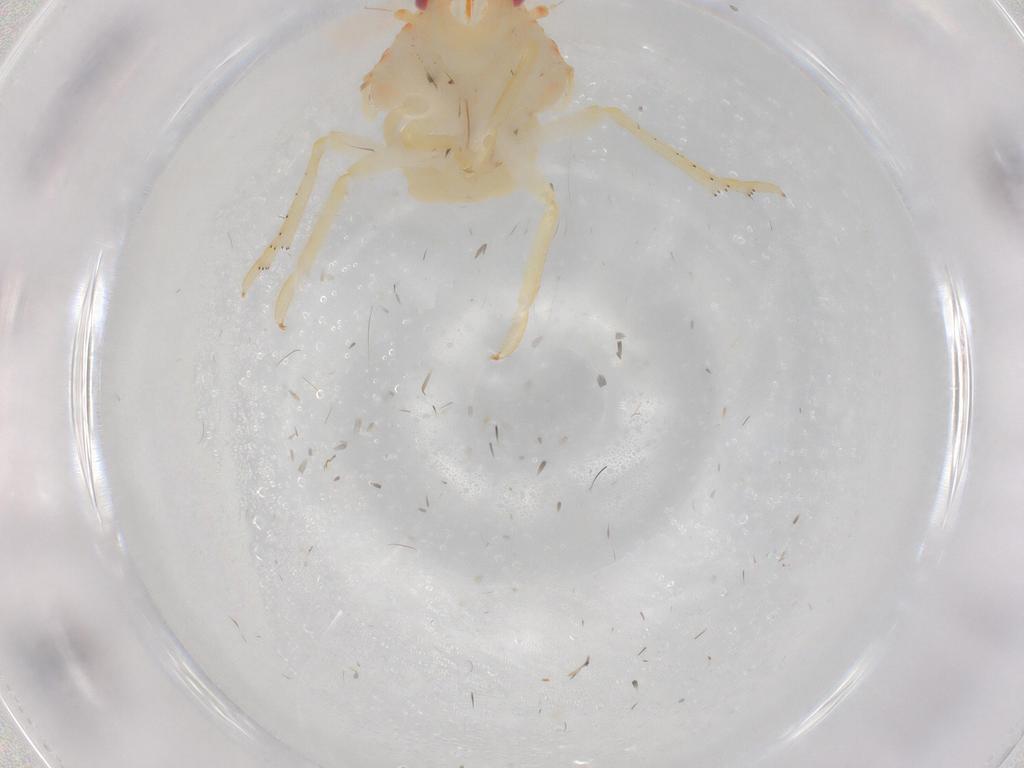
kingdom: Animalia
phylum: Arthropoda
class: Insecta
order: Hemiptera
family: Flatidae
